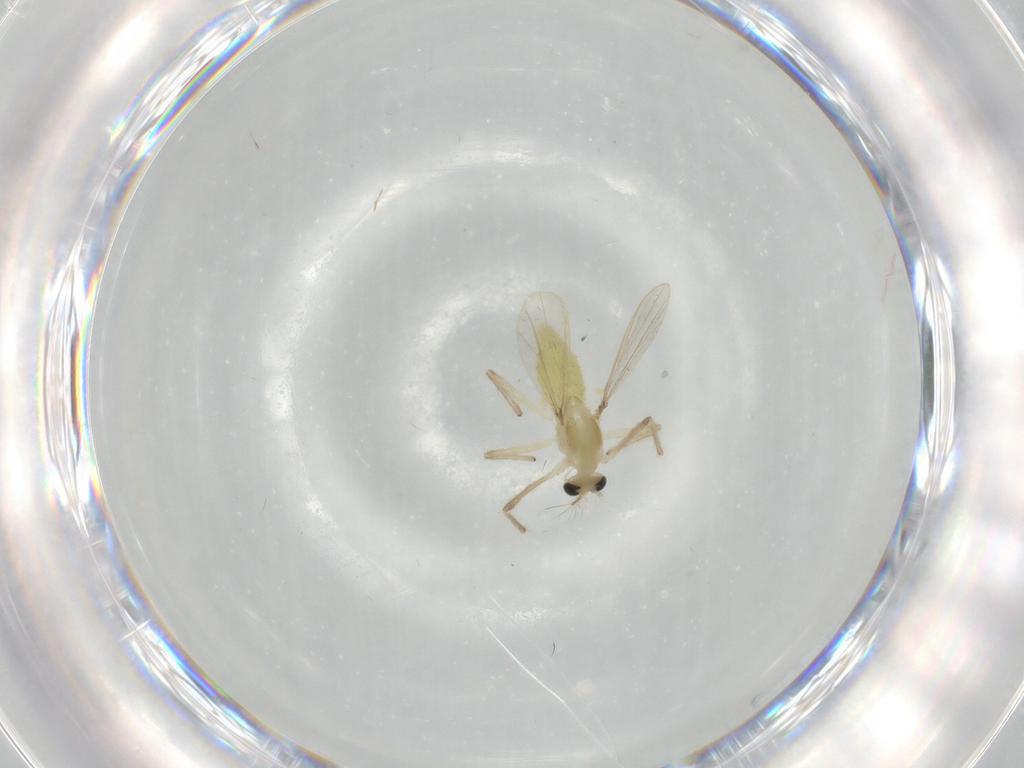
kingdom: Animalia
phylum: Arthropoda
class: Insecta
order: Diptera
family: Chironomidae
